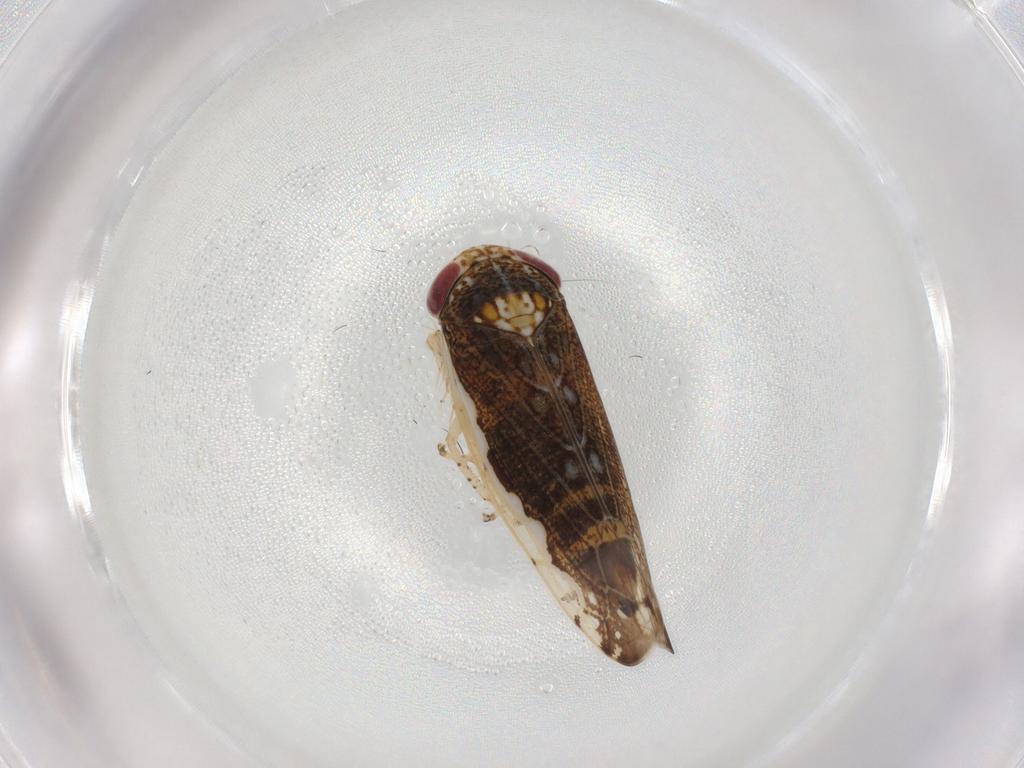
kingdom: Animalia
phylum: Arthropoda
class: Insecta
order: Hemiptera
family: Cicadellidae
